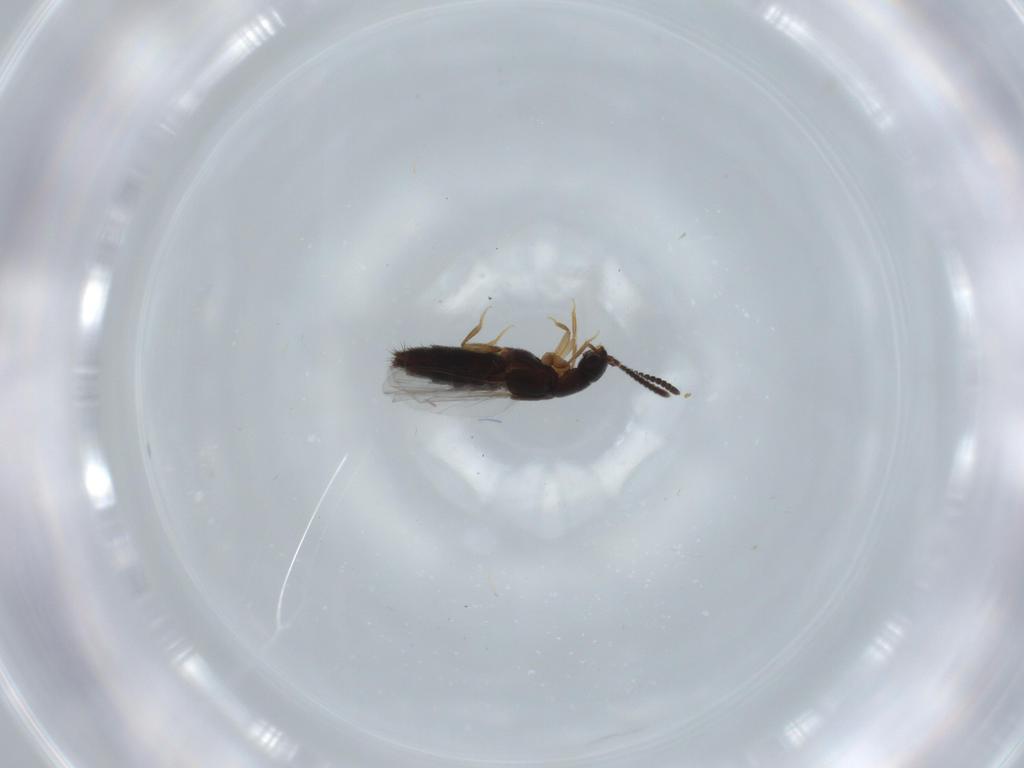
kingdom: Animalia
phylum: Arthropoda
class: Insecta
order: Coleoptera
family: Staphylinidae
